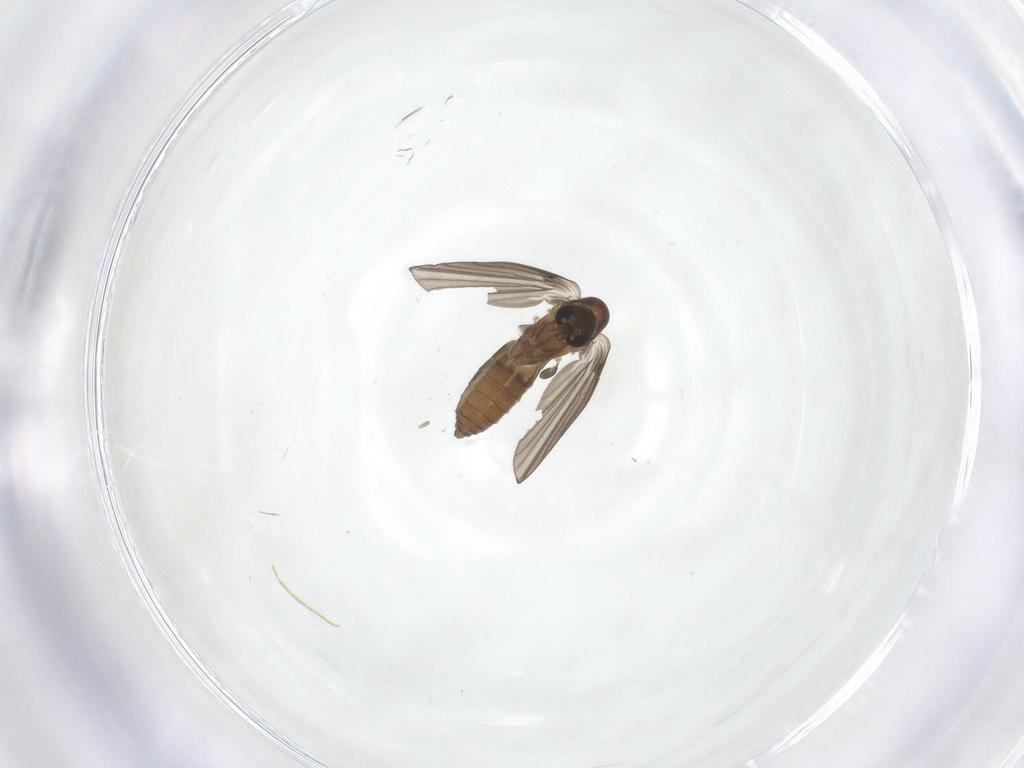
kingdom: Animalia
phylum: Arthropoda
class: Insecta
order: Diptera
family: Psychodidae
